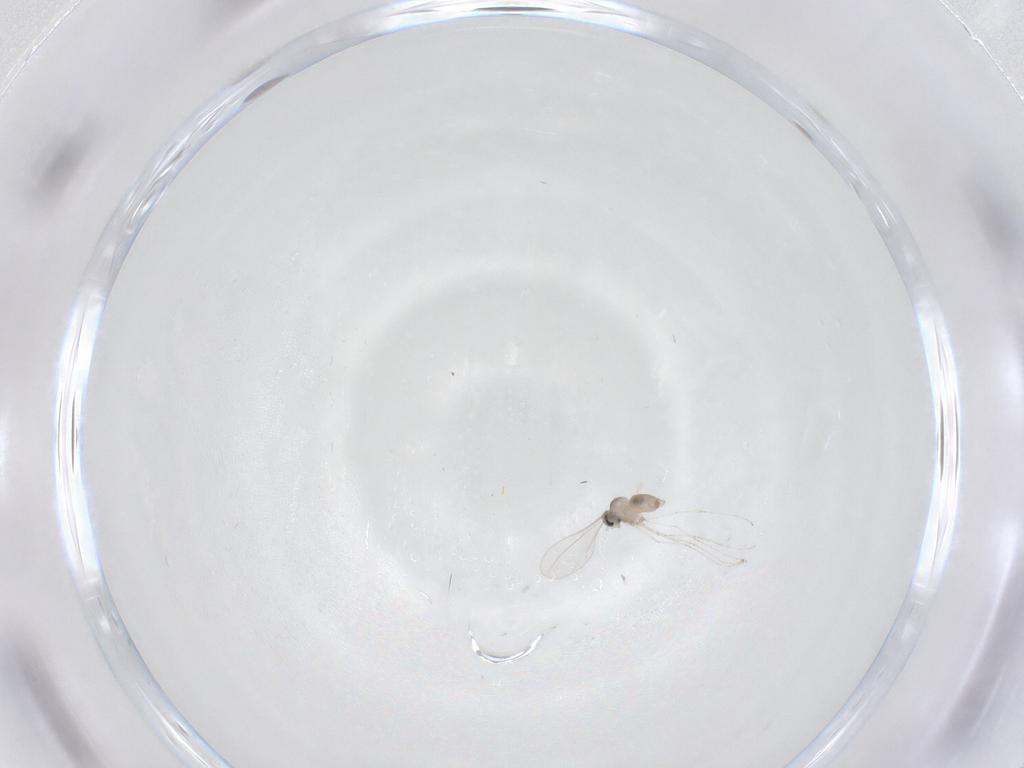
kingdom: Animalia
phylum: Arthropoda
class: Insecta
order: Diptera
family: Cecidomyiidae
